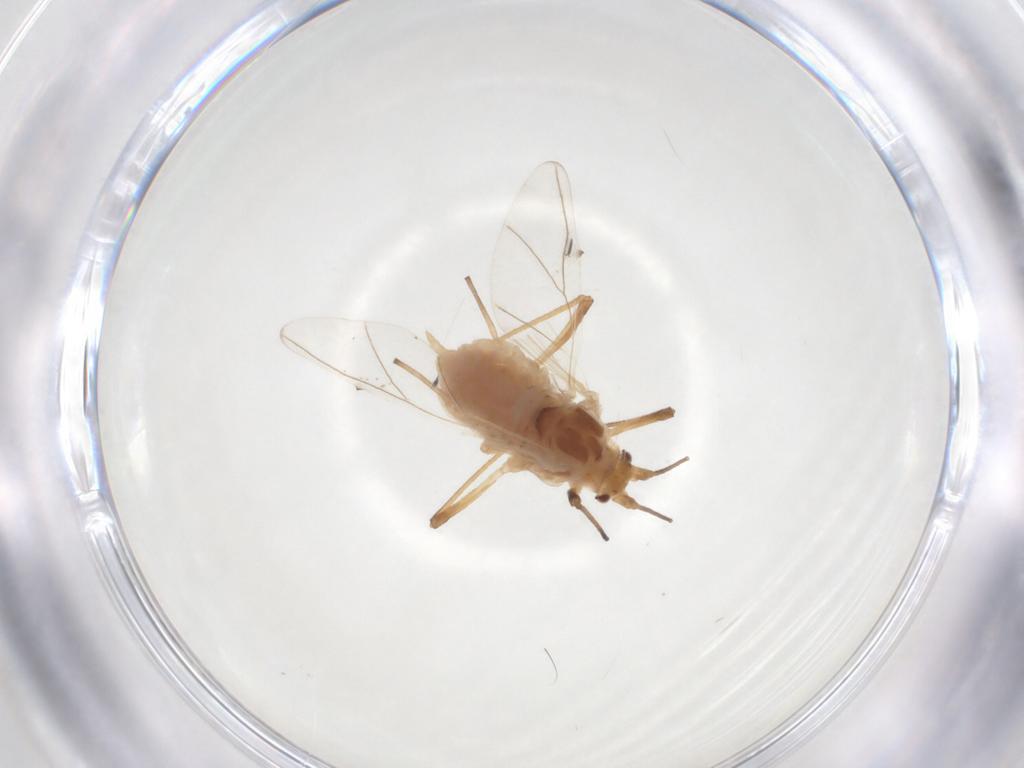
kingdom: Animalia
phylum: Arthropoda
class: Insecta
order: Hemiptera
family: Aphididae
